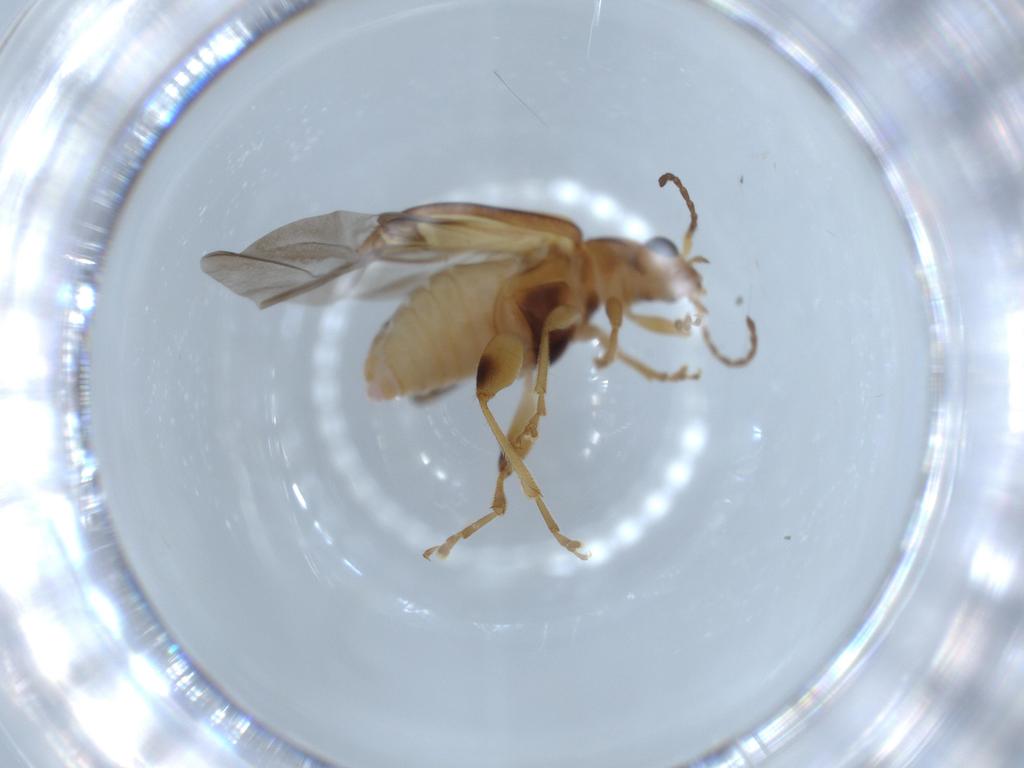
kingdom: Animalia
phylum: Arthropoda
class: Insecta
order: Coleoptera
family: Chrysomelidae
